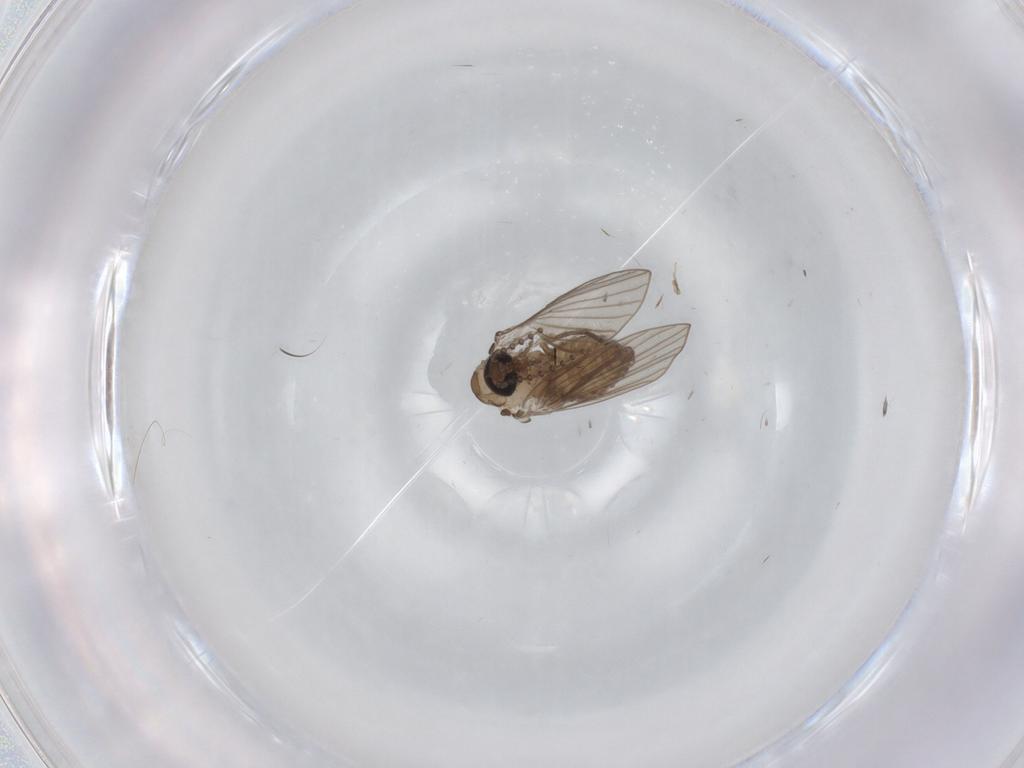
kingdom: Animalia
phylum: Arthropoda
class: Insecta
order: Diptera
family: Psychodidae
